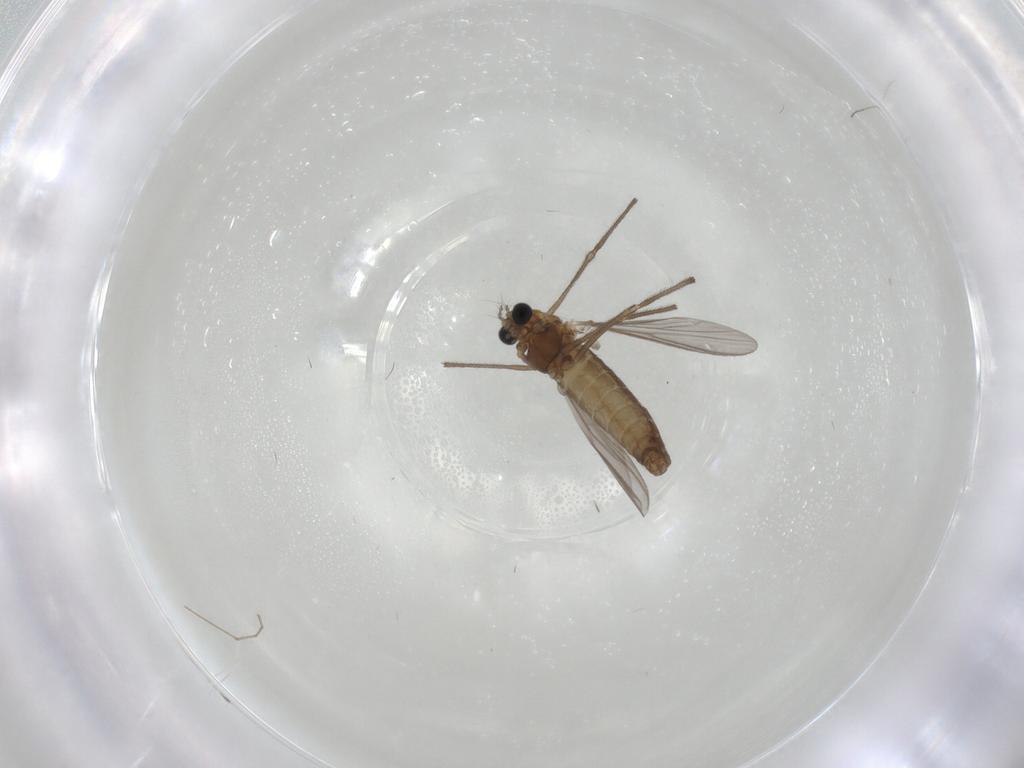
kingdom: Animalia
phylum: Arthropoda
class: Insecta
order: Diptera
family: Chironomidae
